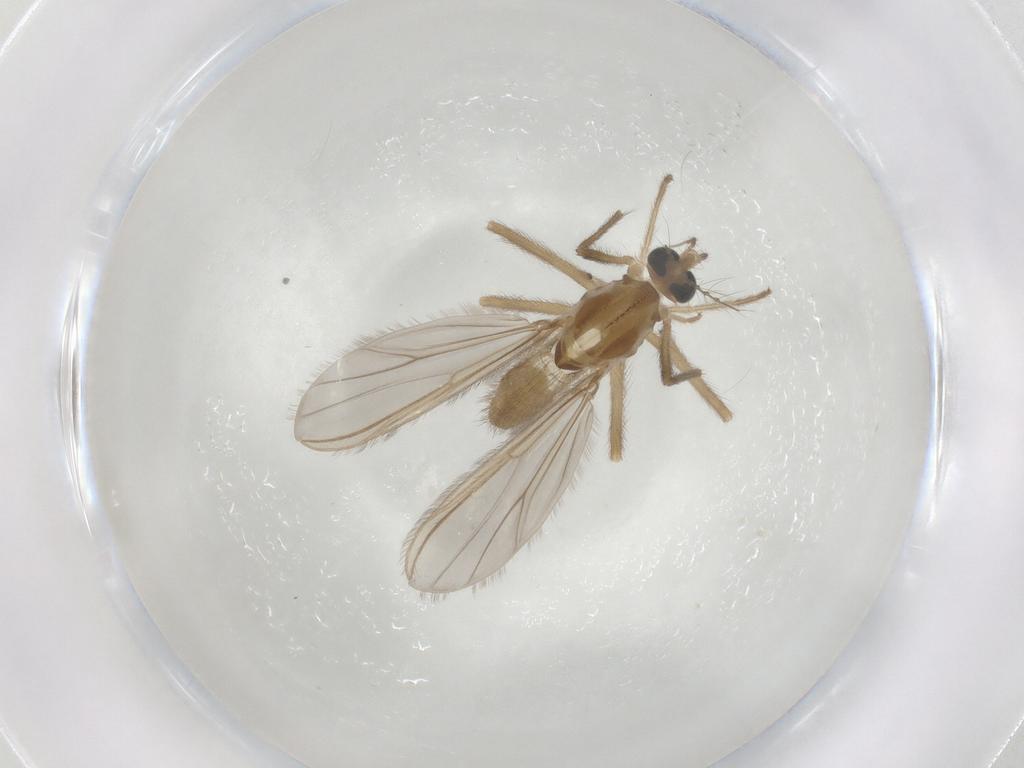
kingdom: Animalia
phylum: Arthropoda
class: Insecta
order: Diptera
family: Chironomidae
